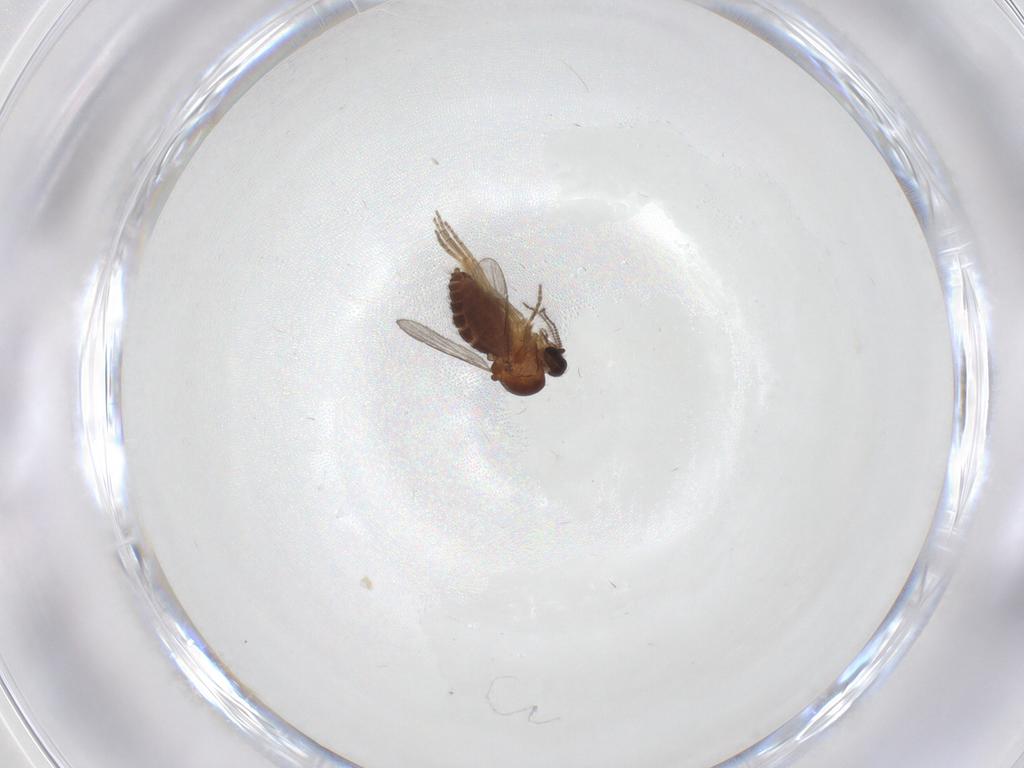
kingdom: Animalia
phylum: Arthropoda
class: Insecta
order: Diptera
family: Ceratopogonidae
